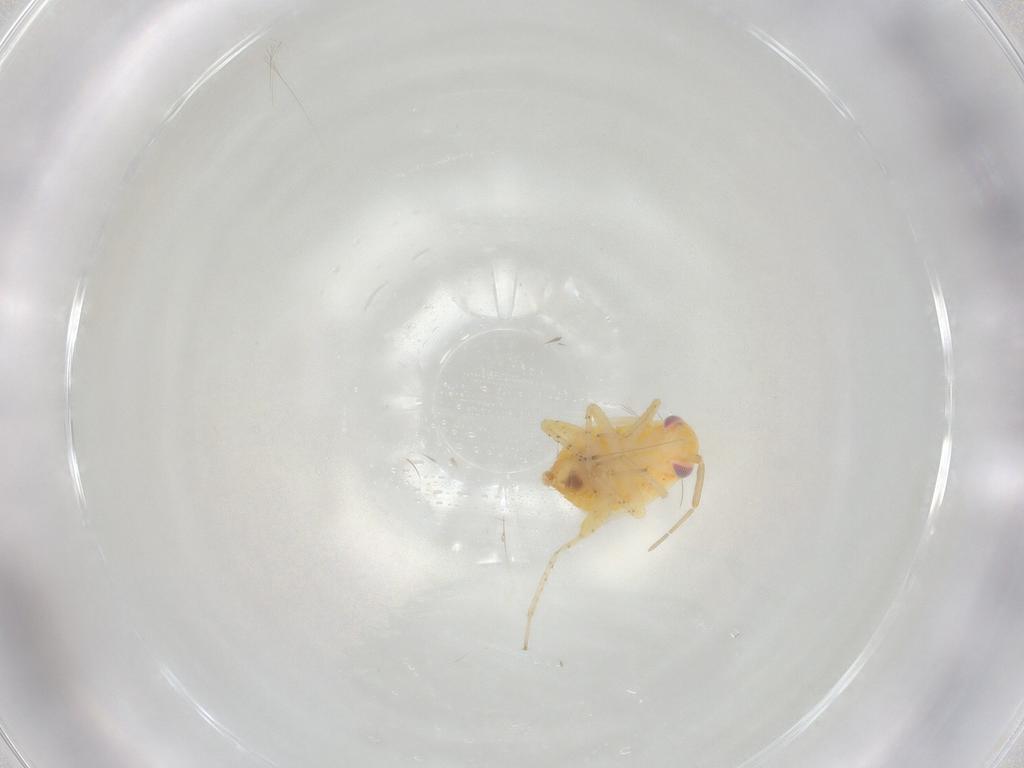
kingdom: Animalia
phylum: Arthropoda
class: Insecta
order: Hemiptera
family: Miridae
